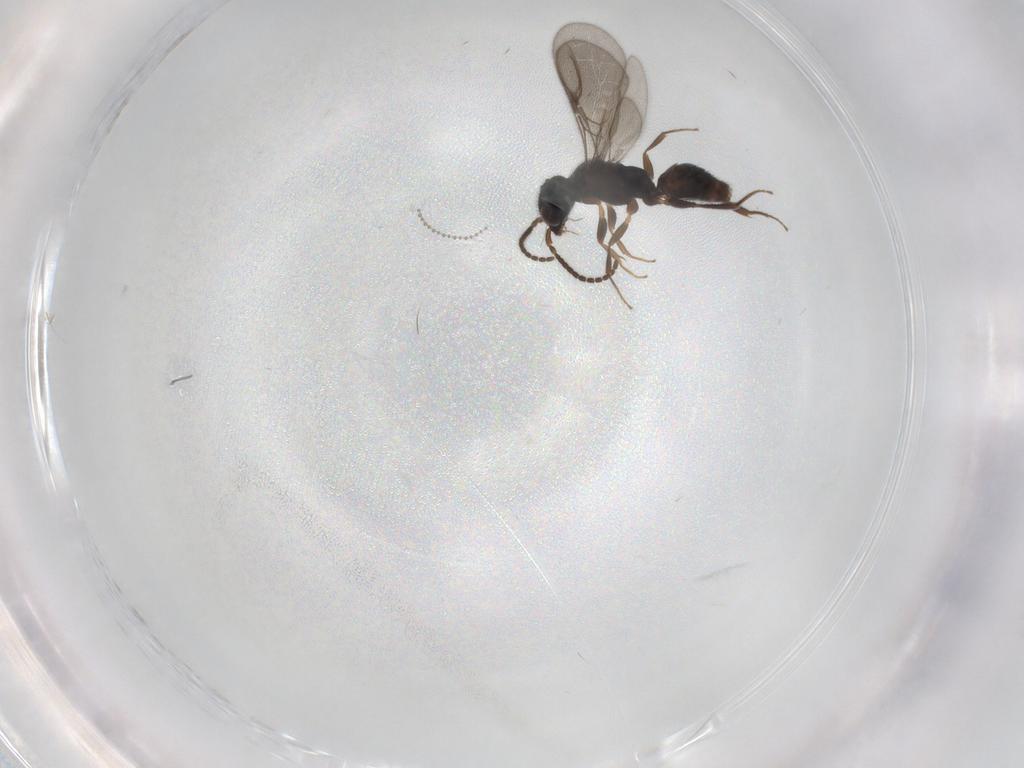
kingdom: Animalia
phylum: Arthropoda
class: Insecta
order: Hymenoptera
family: Bethylidae
